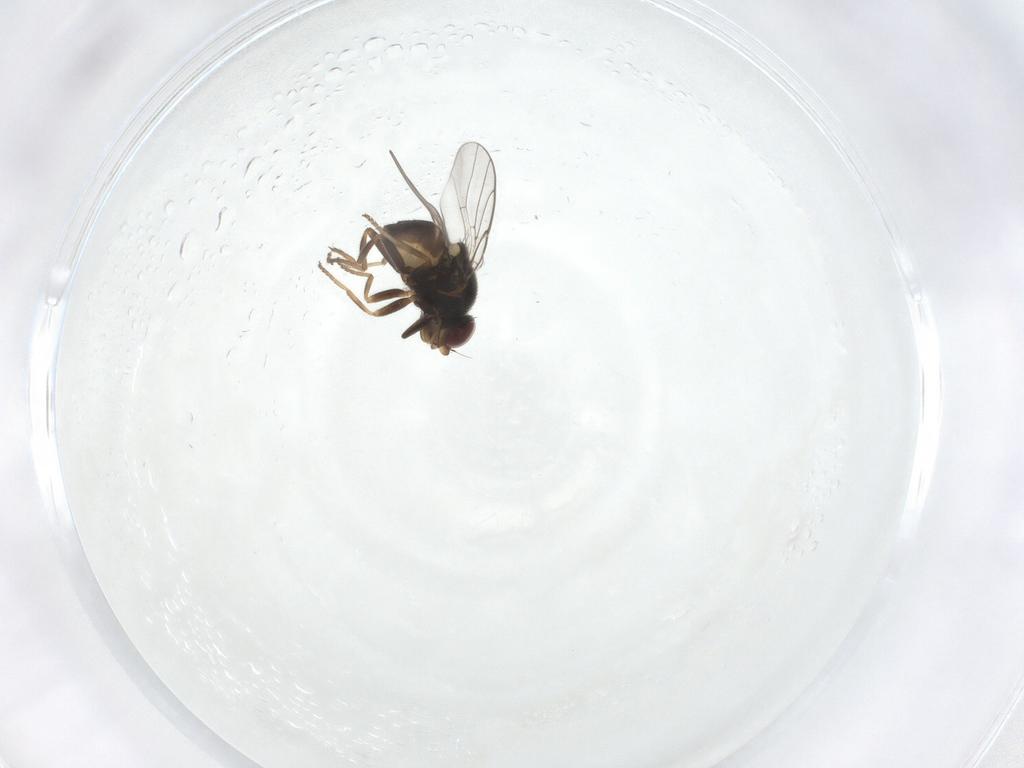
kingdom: Animalia
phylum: Arthropoda
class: Insecta
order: Diptera
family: Chloropidae
